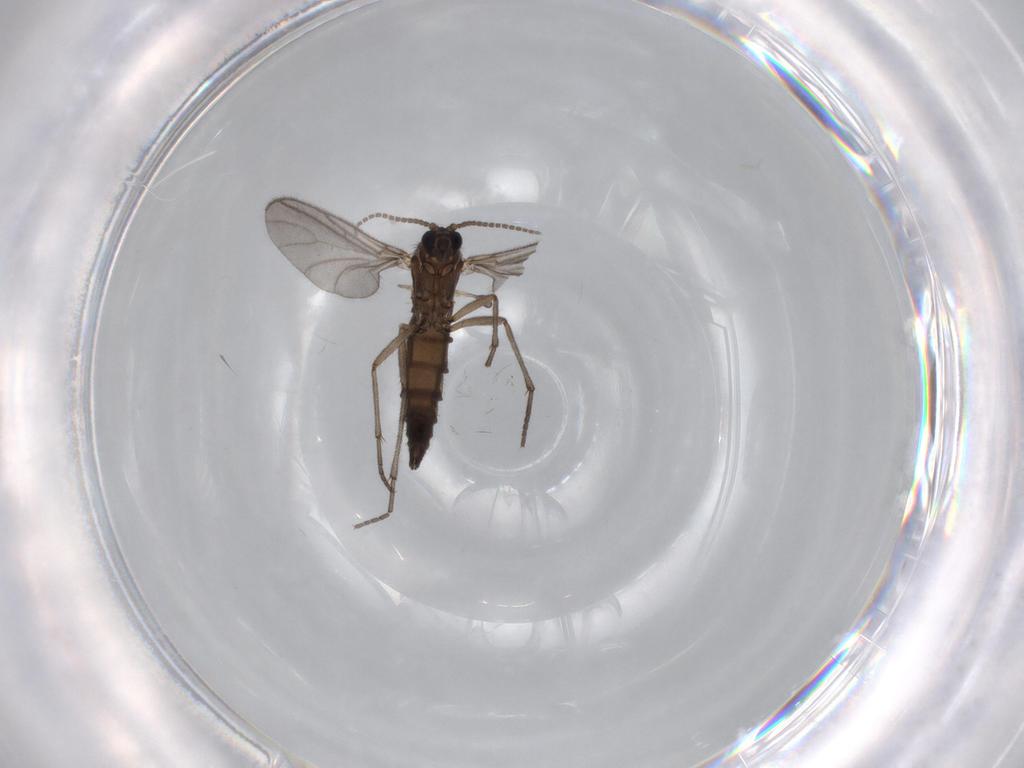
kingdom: Animalia
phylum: Arthropoda
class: Insecta
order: Diptera
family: Sciaridae
